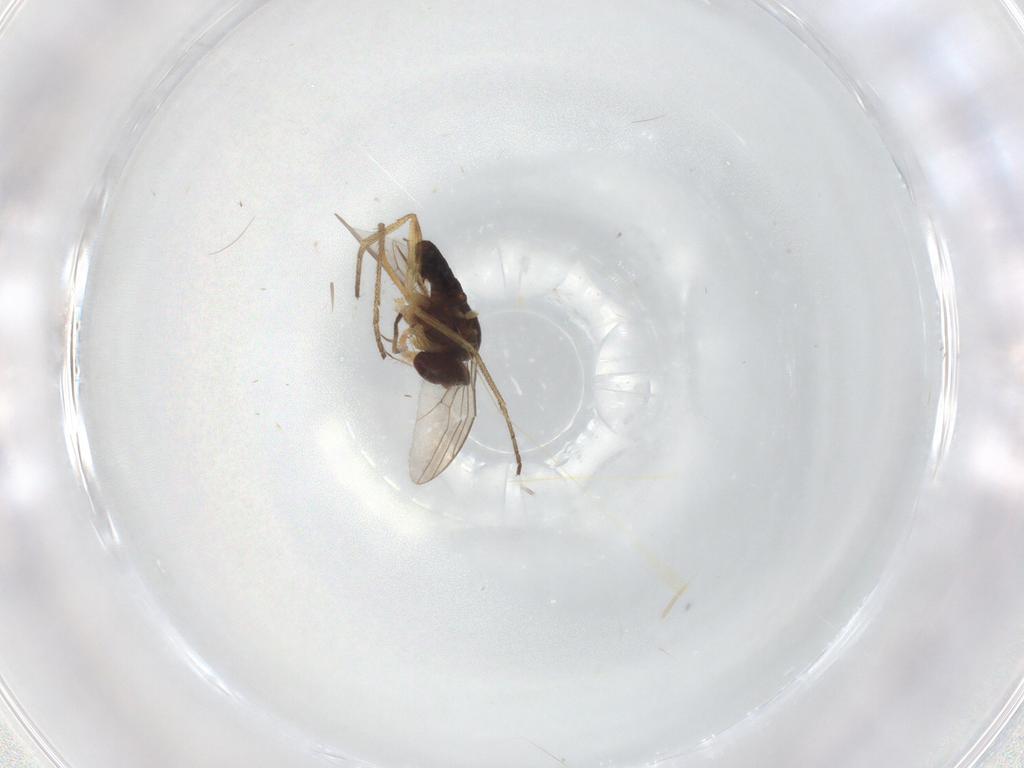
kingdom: Animalia
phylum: Arthropoda
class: Insecta
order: Diptera
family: Dolichopodidae
